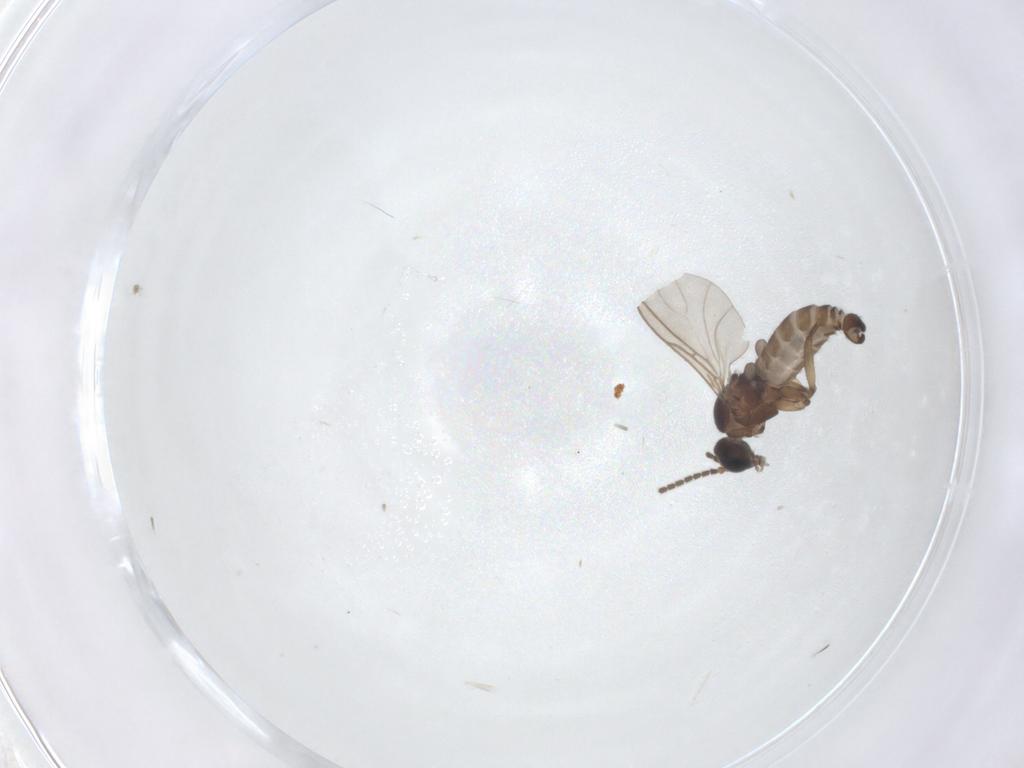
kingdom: Animalia
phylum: Arthropoda
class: Insecta
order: Diptera
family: Sciaridae
